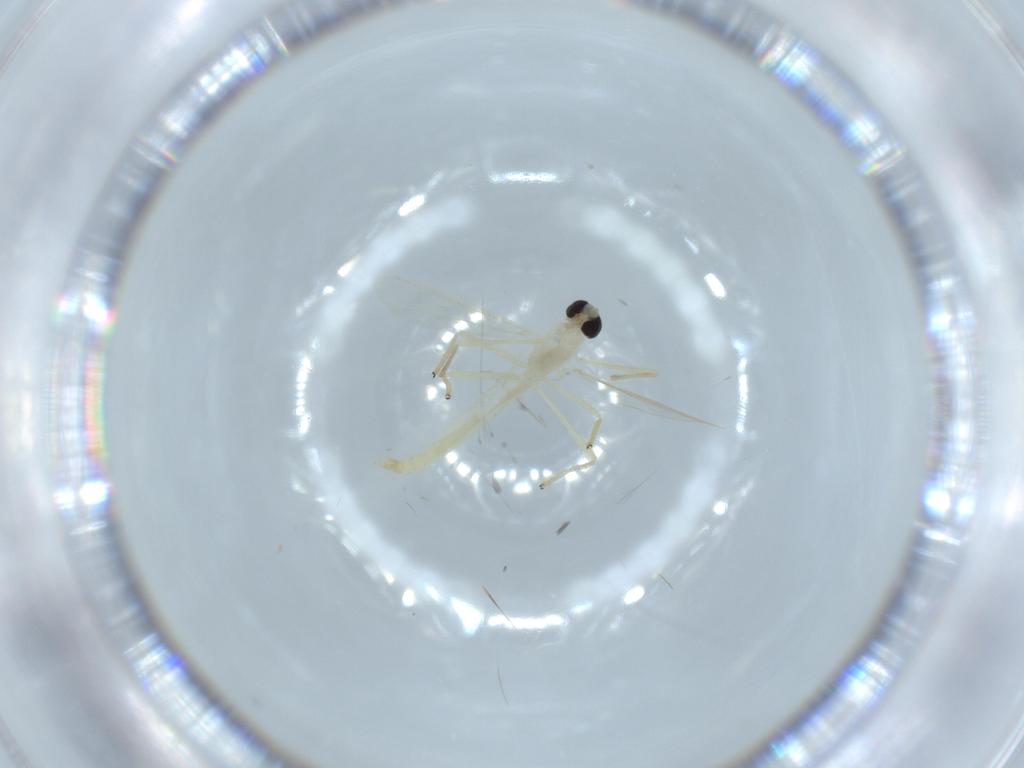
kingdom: Animalia
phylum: Arthropoda
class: Insecta
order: Diptera
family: Chironomidae
